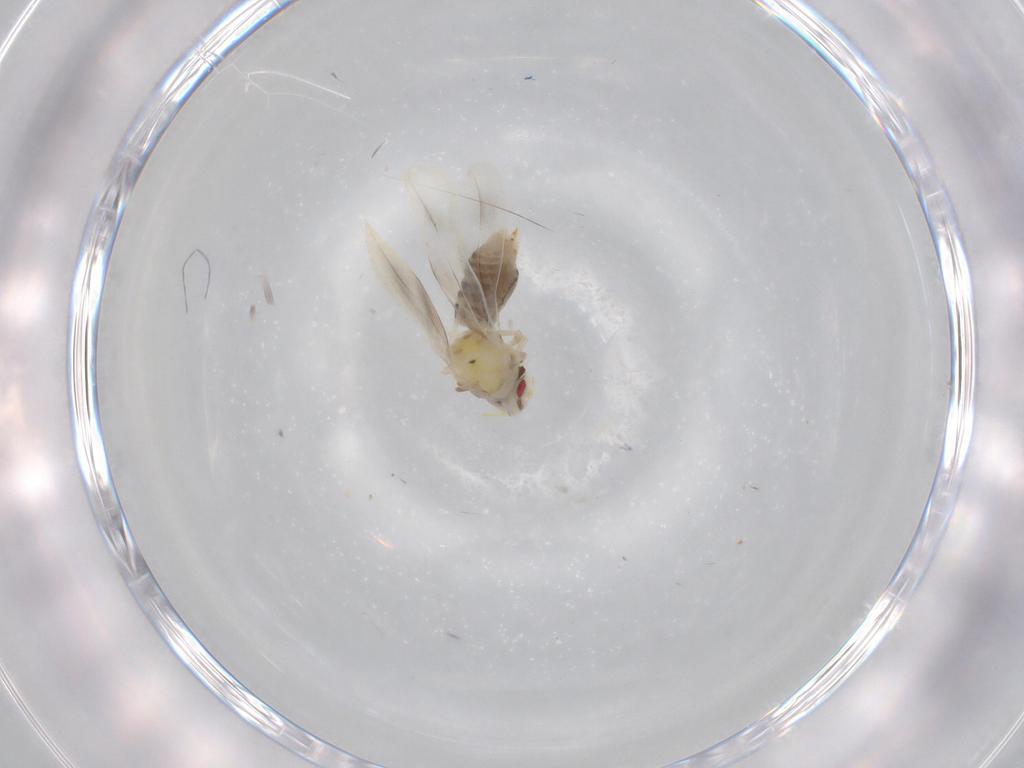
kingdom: Animalia
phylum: Arthropoda
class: Insecta
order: Hemiptera
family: Aleyrodidae
